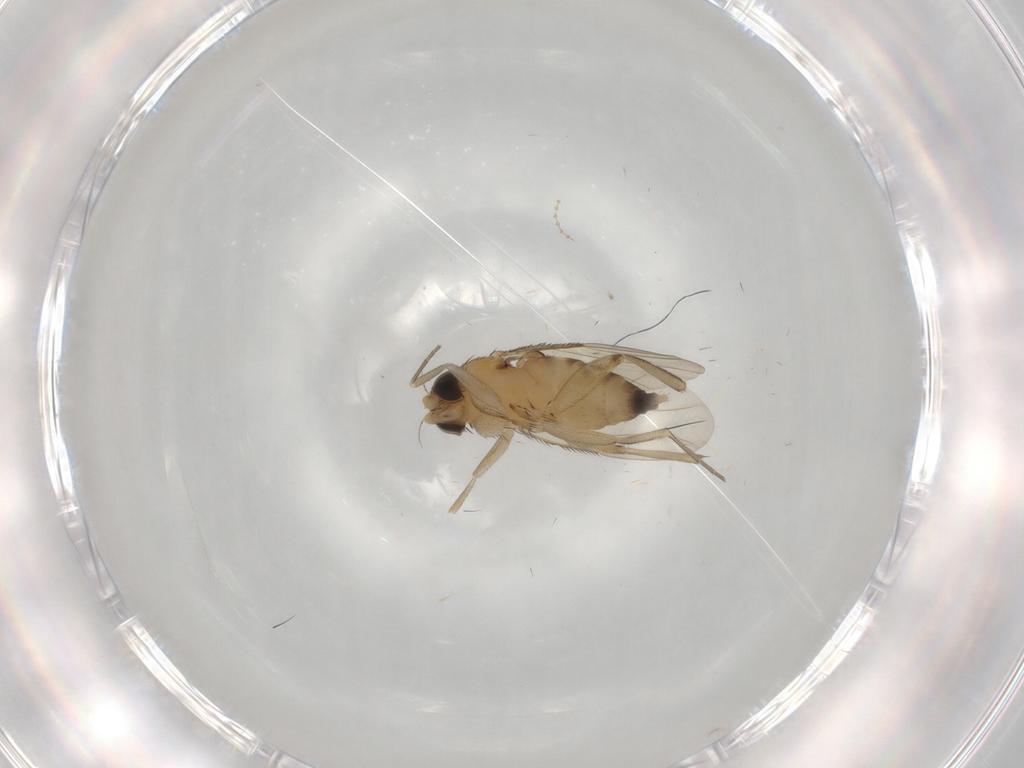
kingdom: Animalia
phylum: Arthropoda
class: Insecta
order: Diptera
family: Phoridae
